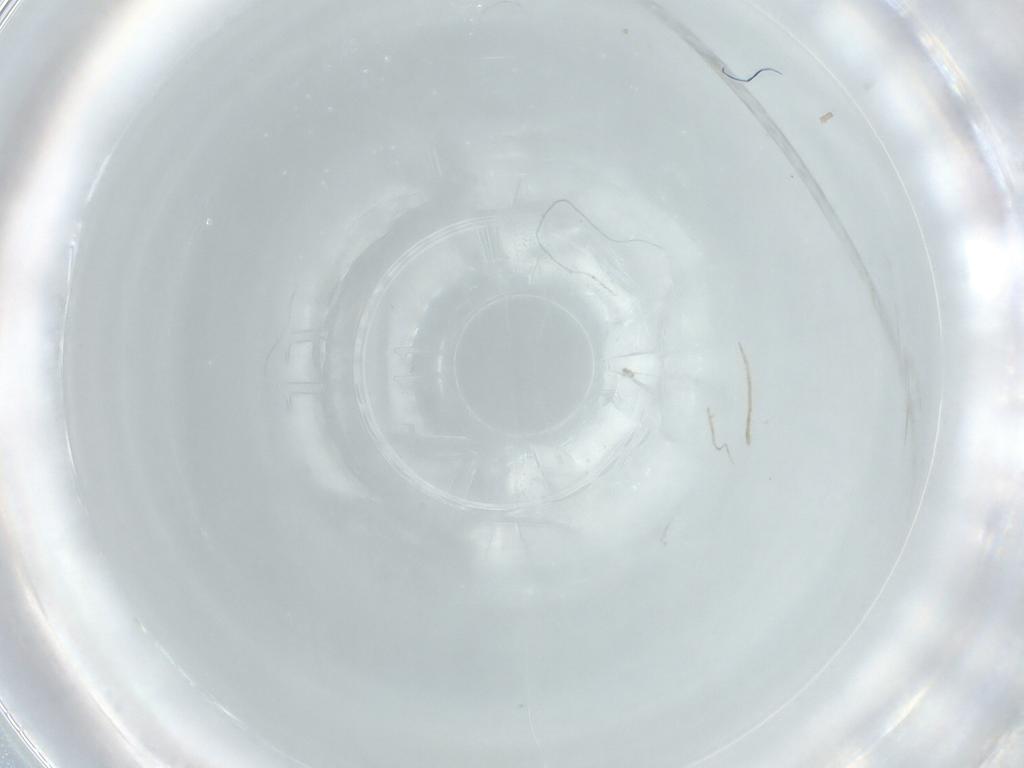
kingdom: Animalia
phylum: Arthropoda
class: Insecta
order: Diptera
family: Cecidomyiidae
